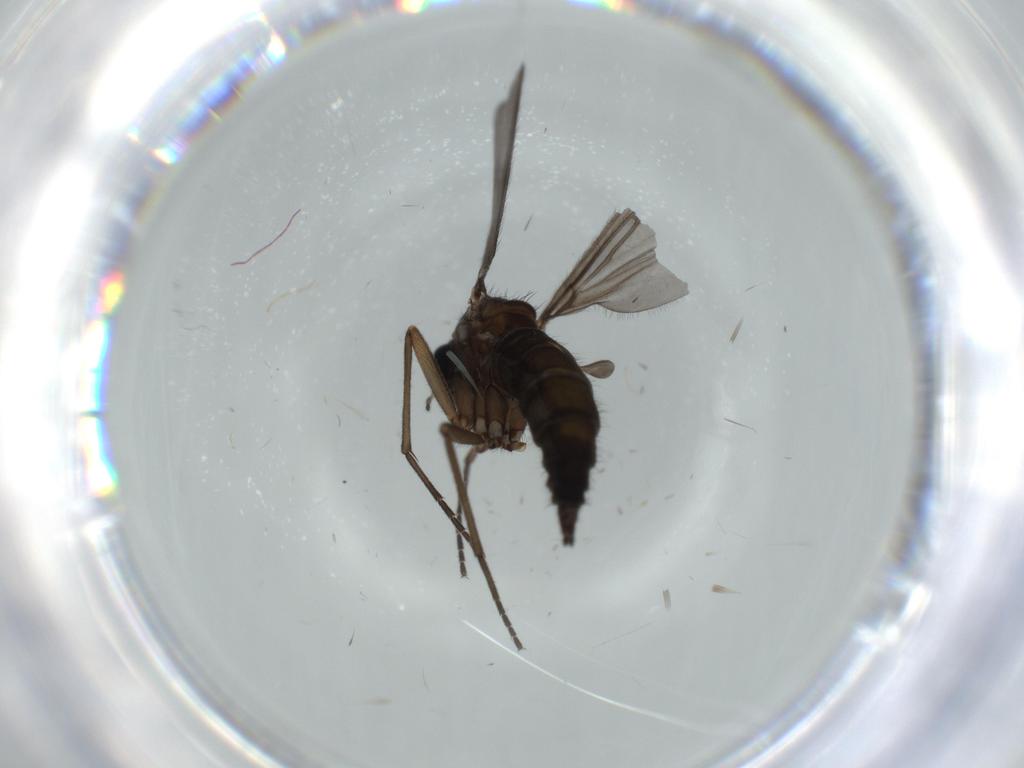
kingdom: Animalia
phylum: Arthropoda
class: Insecta
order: Diptera
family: Sciaridae
